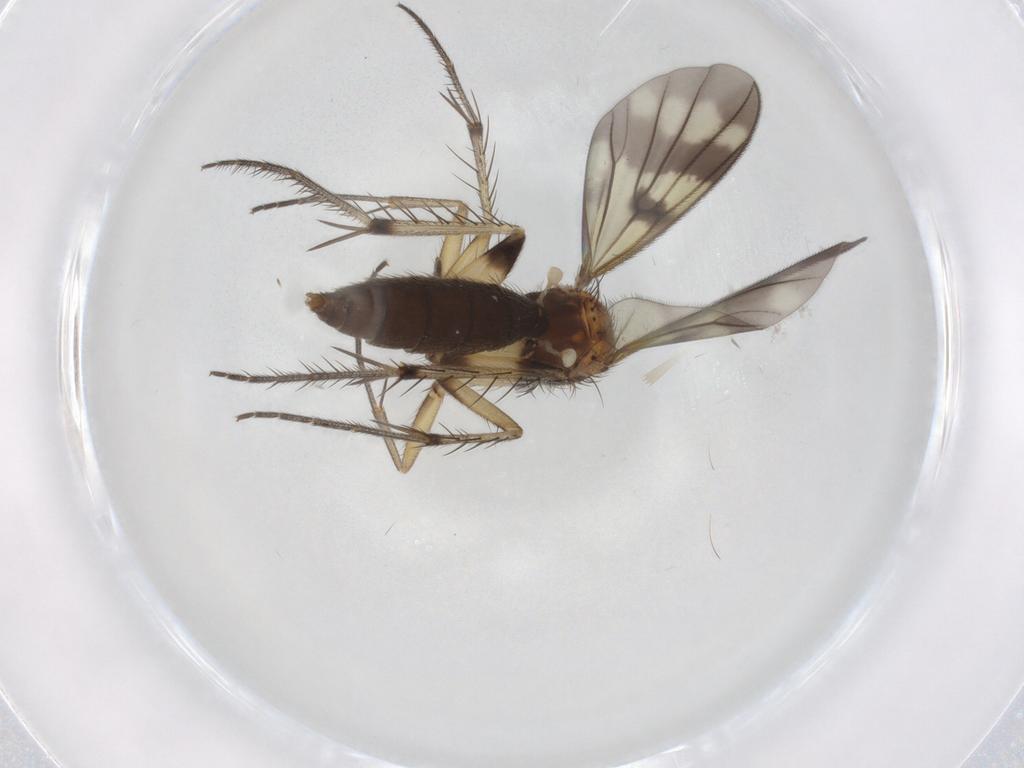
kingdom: Animalia
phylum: Arthropoda
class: Insecta
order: Diptera
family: Mycetophilidae
